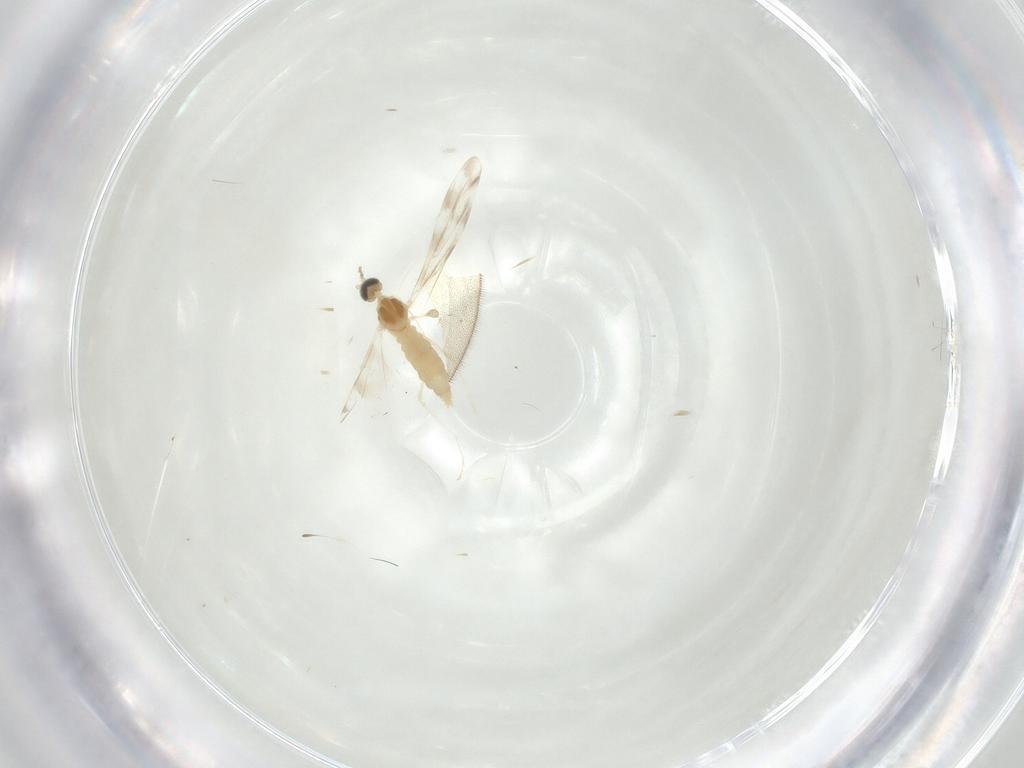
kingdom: Animalia
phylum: Arthropoda
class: Insecta
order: Diptera
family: Cecidomyiidae
